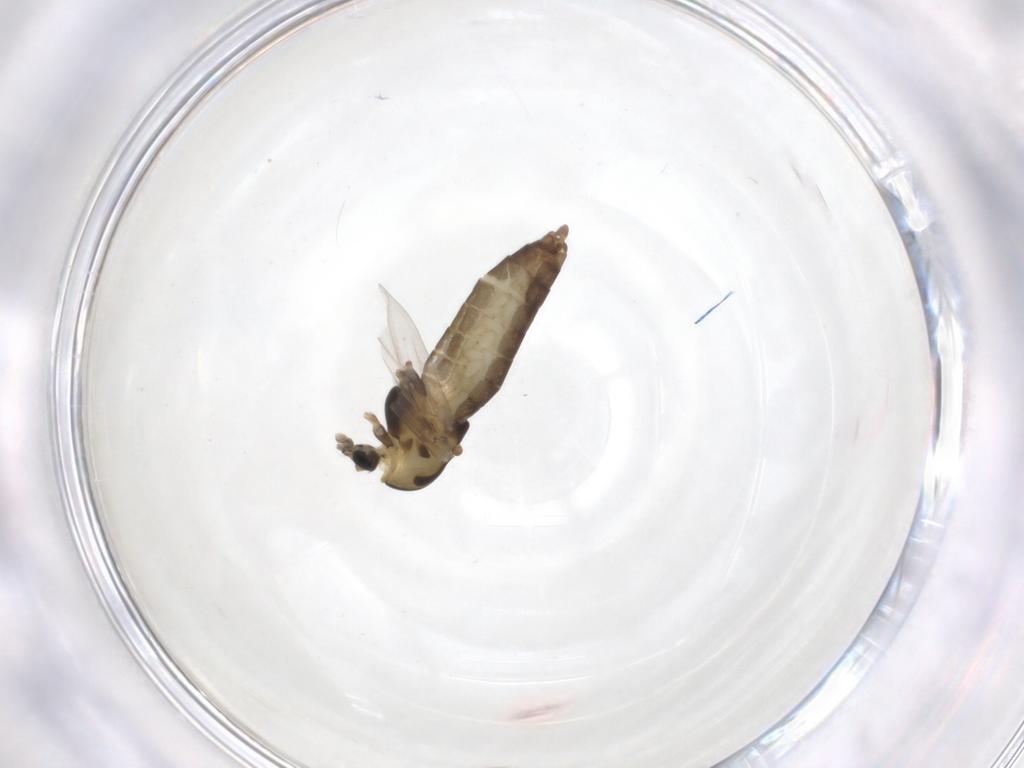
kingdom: Animalia
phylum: Arthropoda
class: Insecta
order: Diptera
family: Chironomidae
